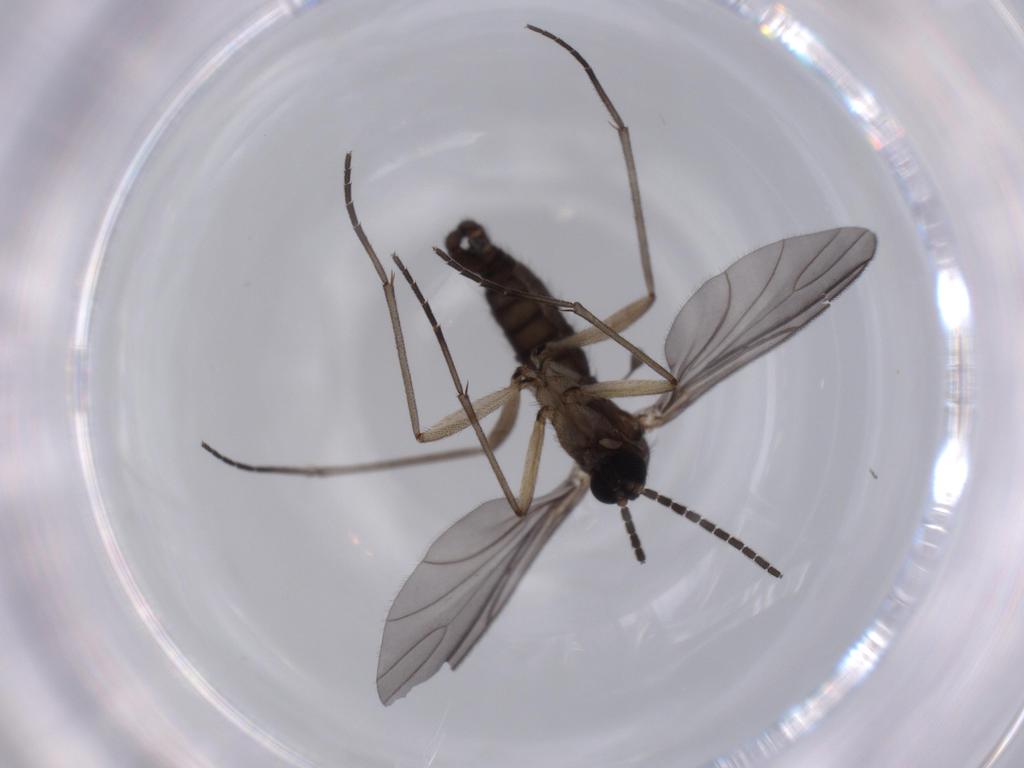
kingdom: Animalia
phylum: Arthropoda
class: Insecta
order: Diptera
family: Sciaridae
